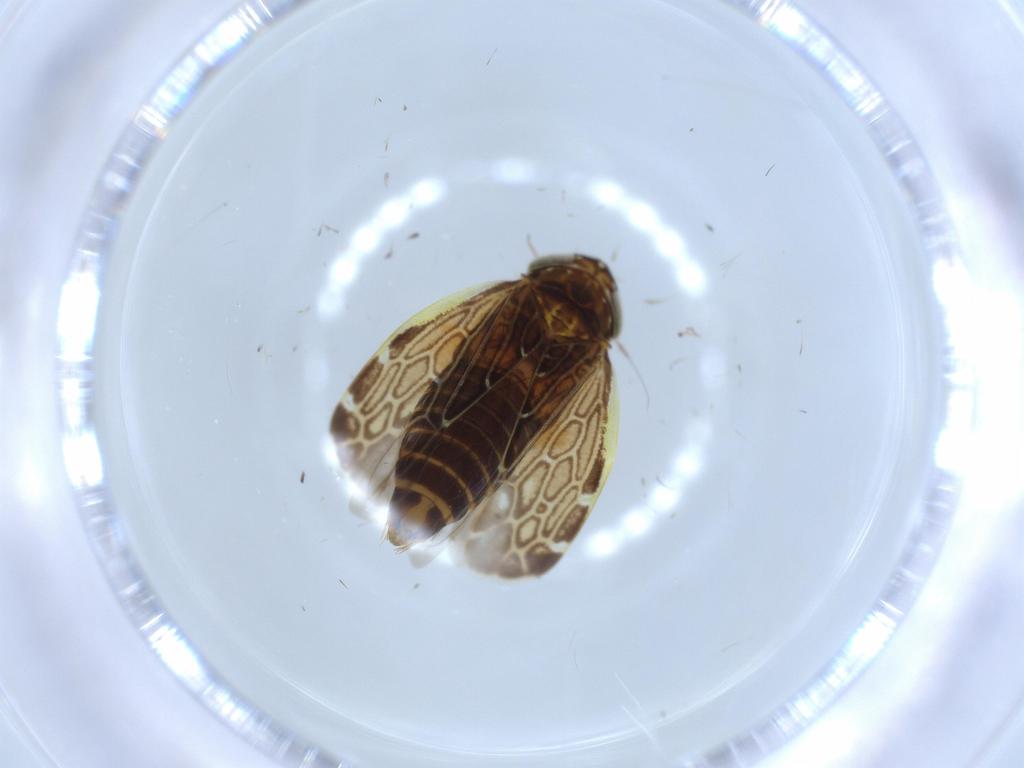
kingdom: Animalia
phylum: Arthropoda
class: Insecta
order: Hemiptera
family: Cicadellidae
